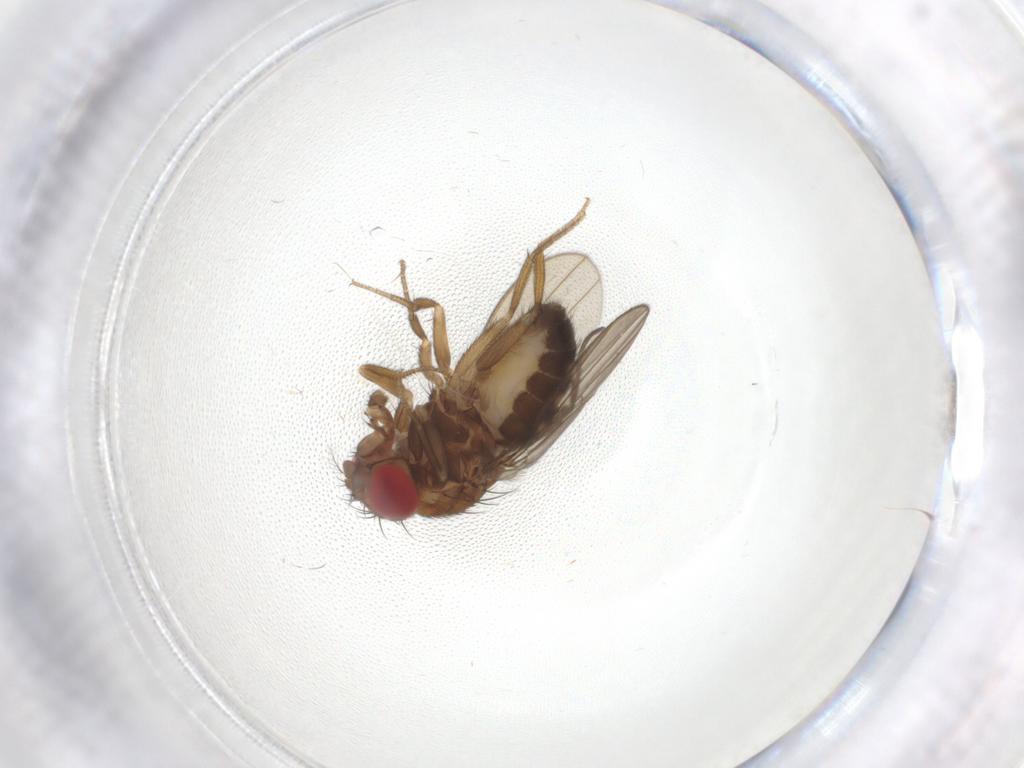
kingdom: Animalia
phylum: Arthropoda
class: Insecta
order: Diptera
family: Drosophilidae
